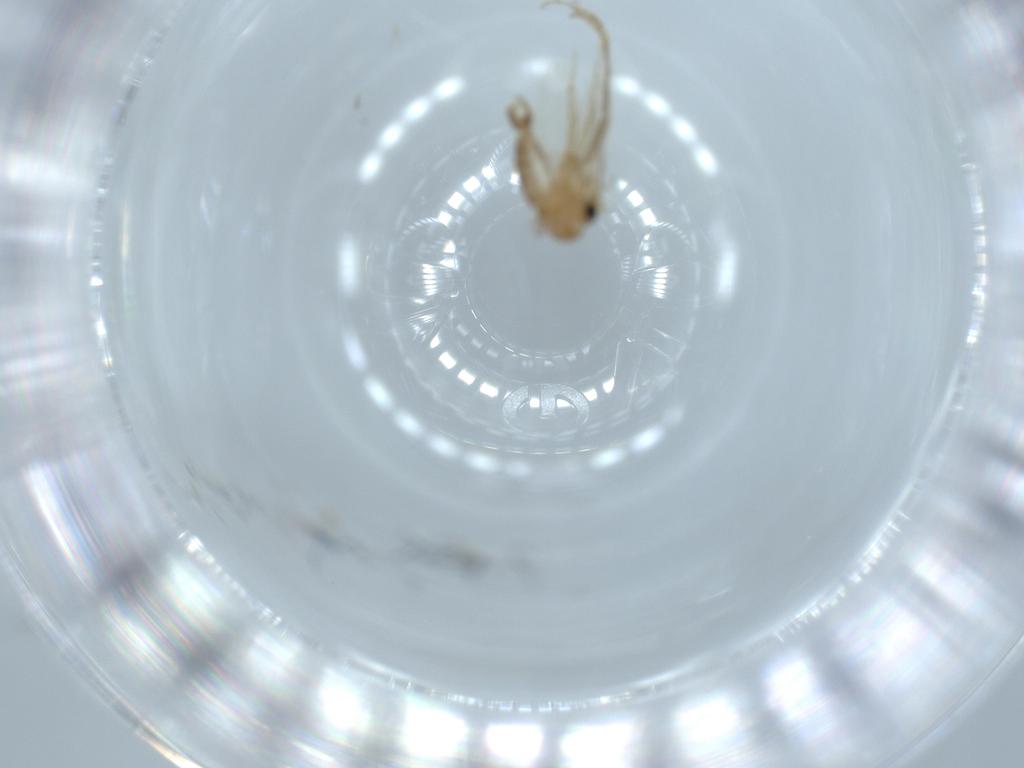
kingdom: Animalia
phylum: Arthropoda
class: Insecta
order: Diptera
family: Psychodidae
